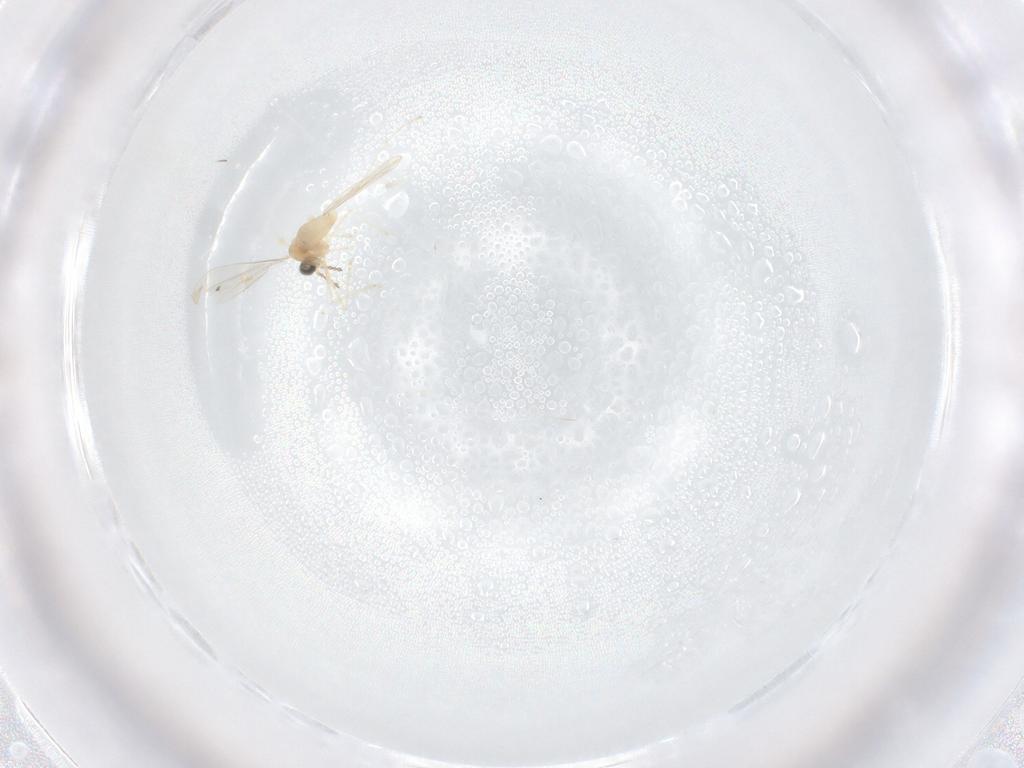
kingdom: Animalia
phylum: Arthropoda
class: Insecta
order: Diptera
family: Cecidomyiidae
